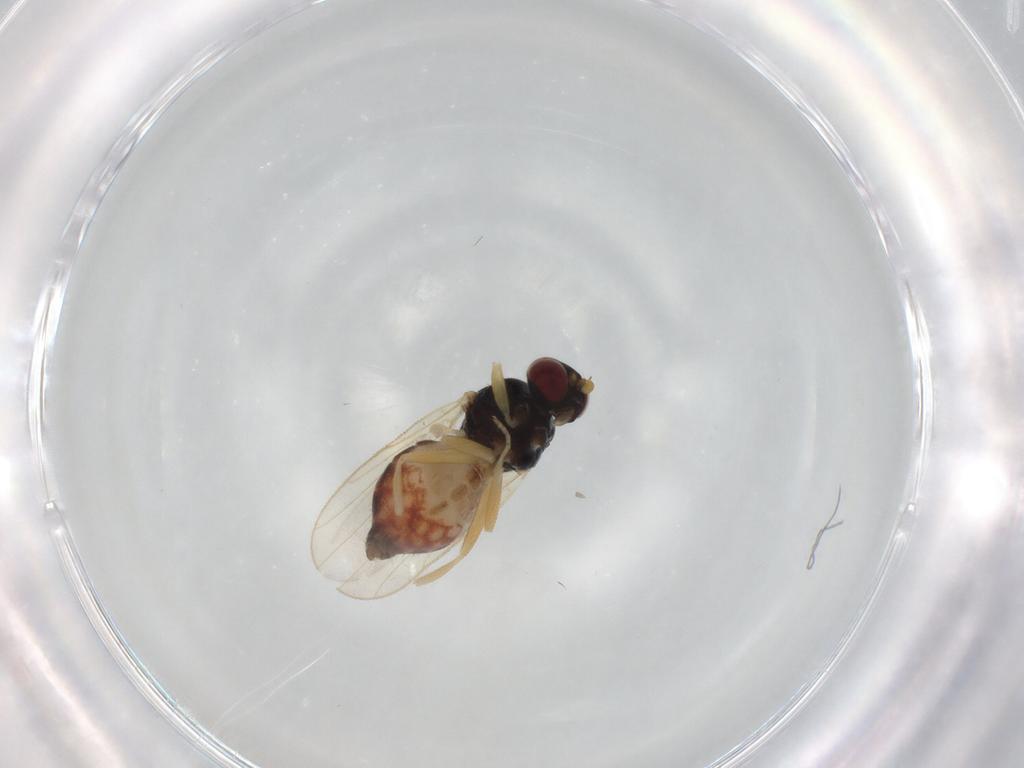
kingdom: Animalia
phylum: Arthropoda
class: Insecta
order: Diptera
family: Chloropidae
